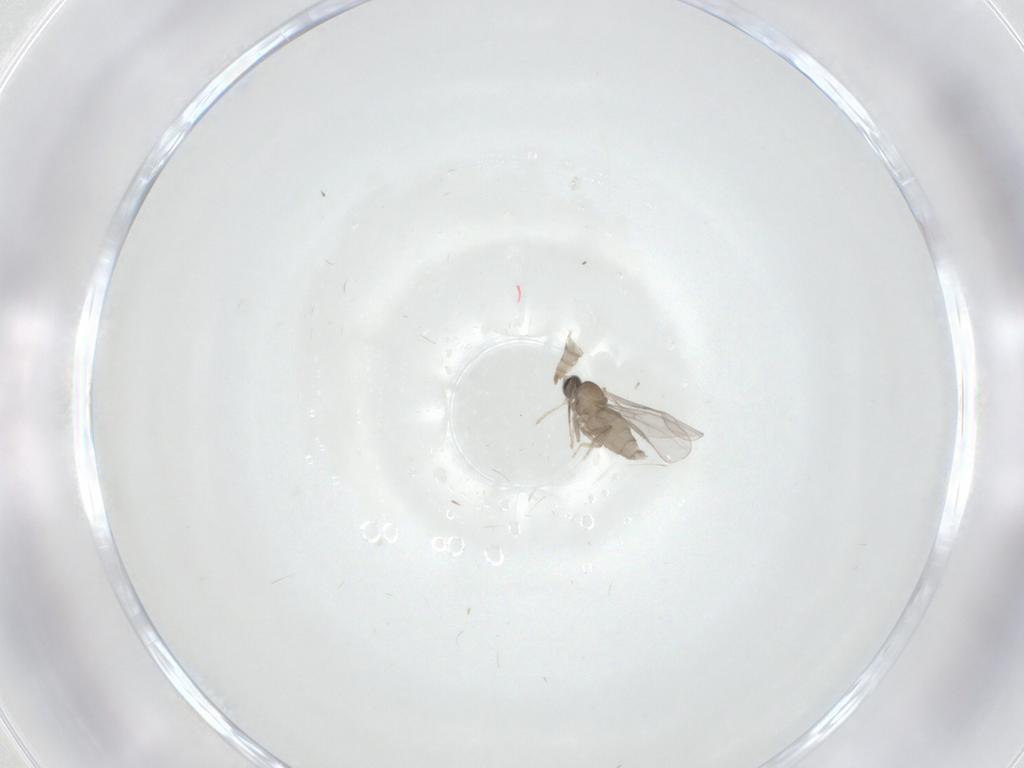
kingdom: Animalia
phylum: Arthropoda
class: Insecta
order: Diptera
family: Cecidomyiidae
